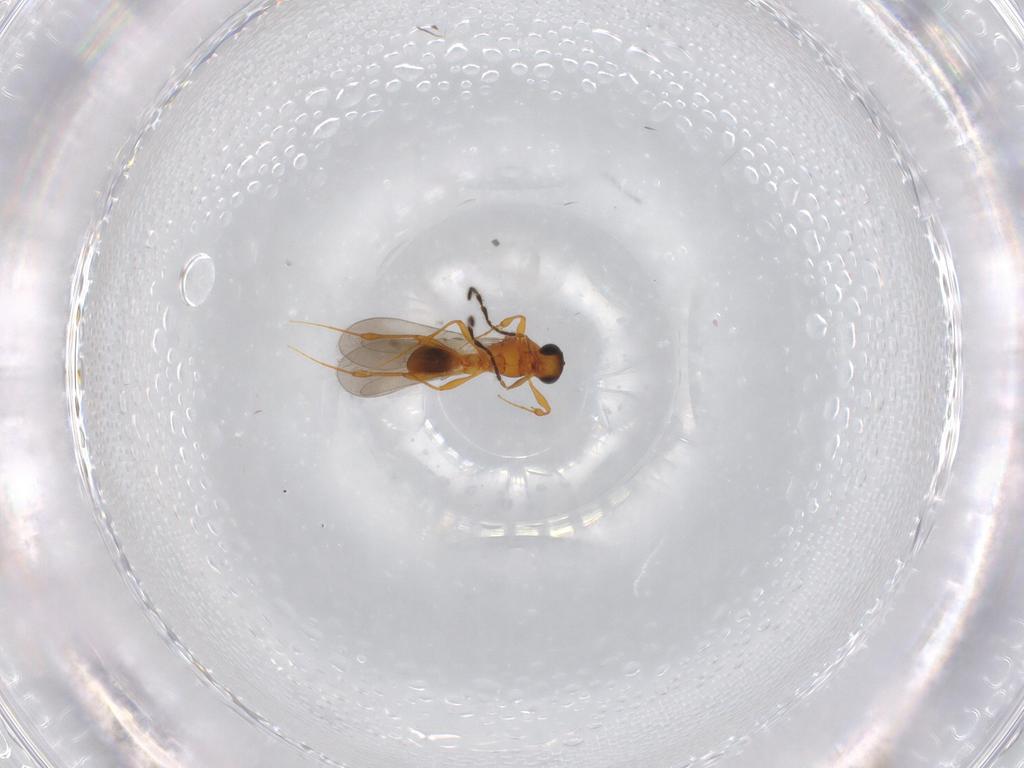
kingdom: Animalia
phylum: Arthropoda
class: Insecta
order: Hymenoptera
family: Platygastridae
